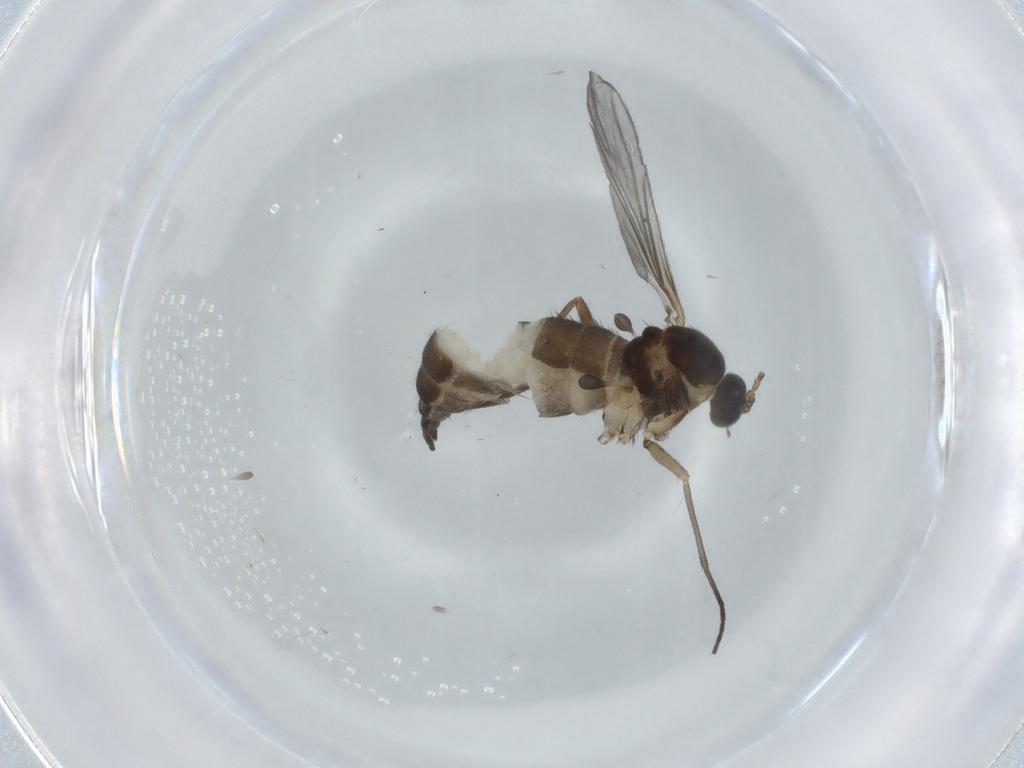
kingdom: Animalia
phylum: Arthropoda
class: Insecta
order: Diptera
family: Sciaridae
